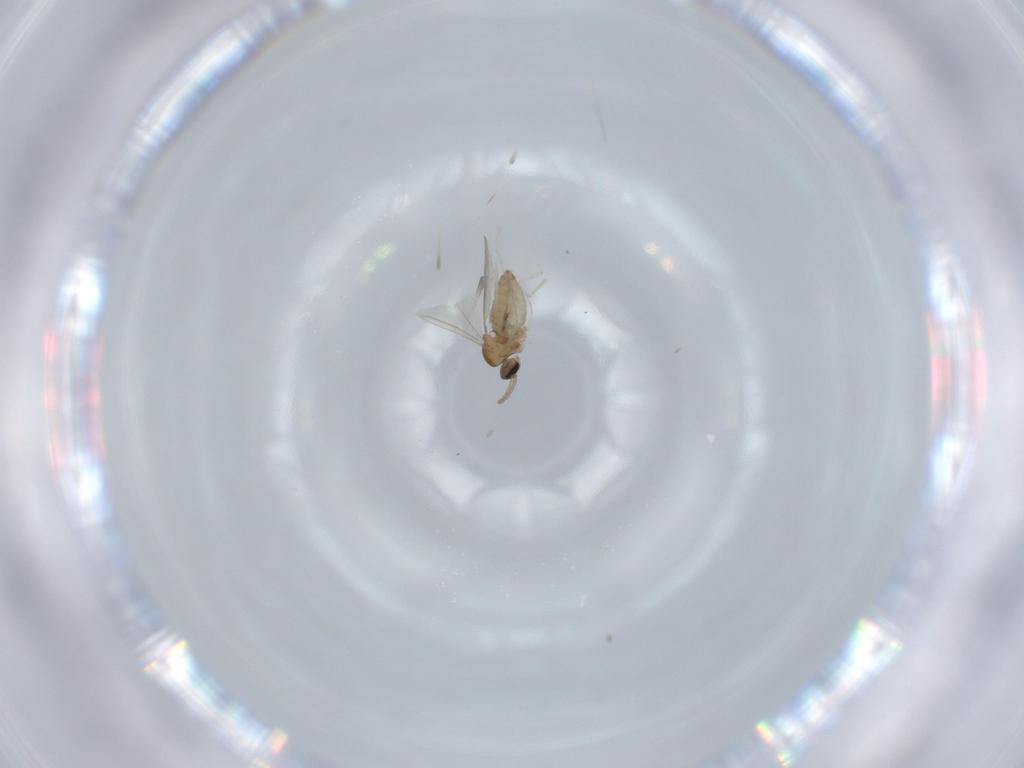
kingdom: Animalia
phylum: Arthropoda
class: Insecta
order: Diptera
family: Cecidomyiidae
